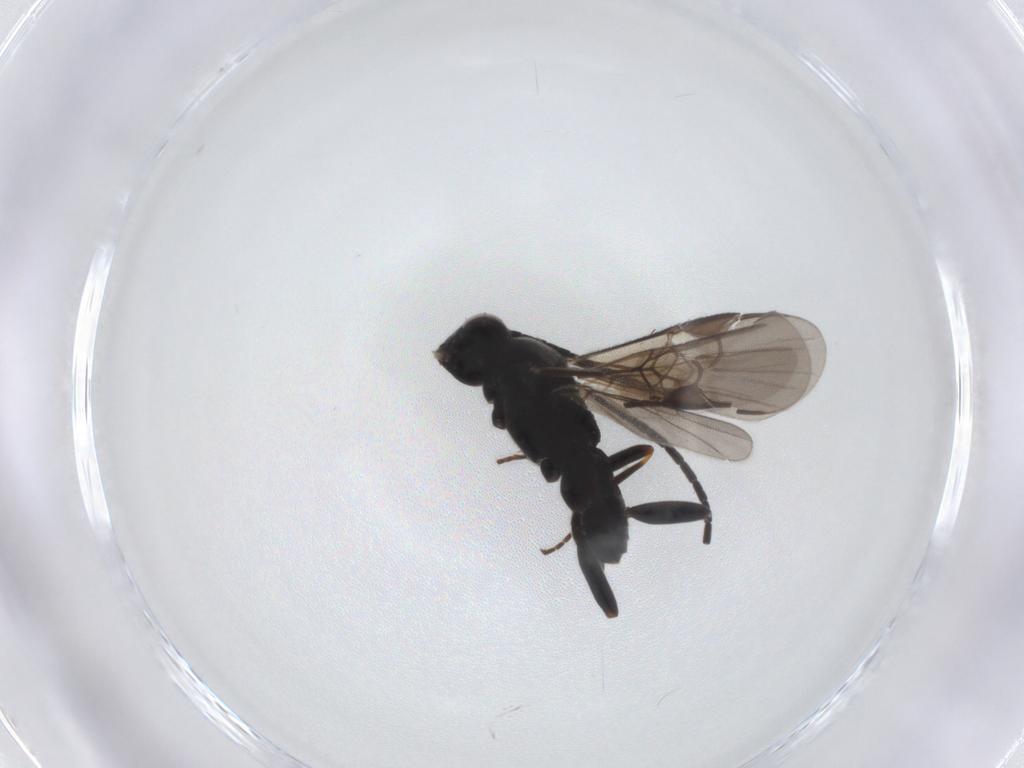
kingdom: Animalia
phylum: Arthropoda
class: Insecta
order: Hymenoptera
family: Braconidae
